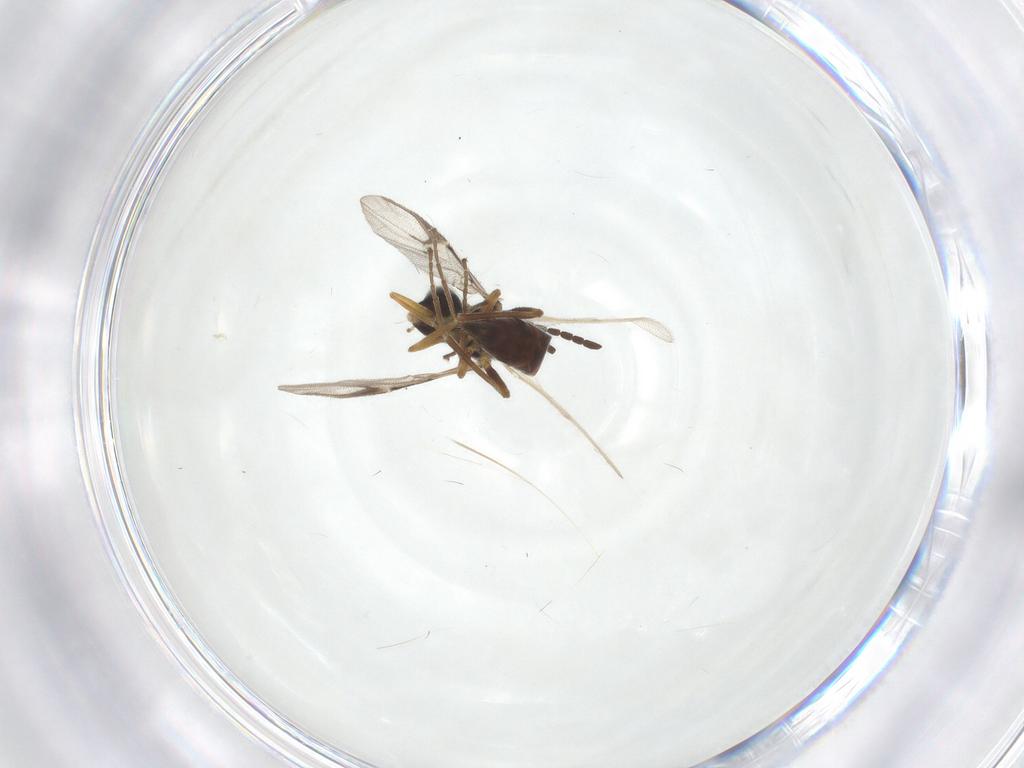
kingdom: Animalia
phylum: Arthropoda
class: Insecta
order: Hymenoptera
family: Braconidae
